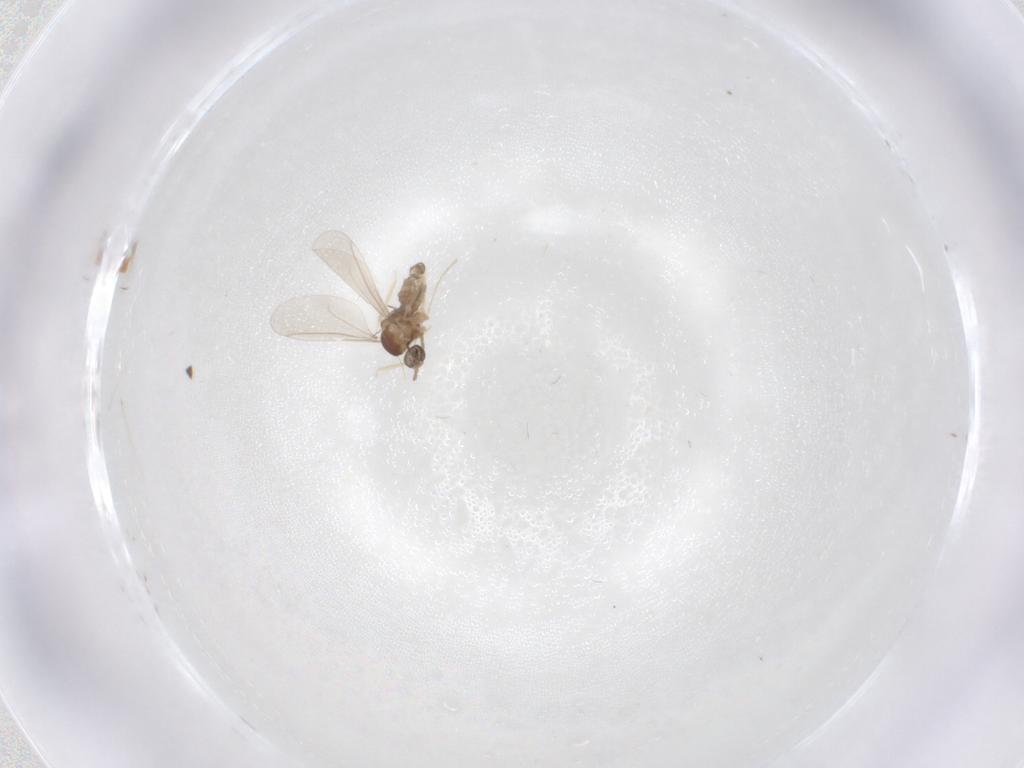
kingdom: Animalia
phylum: Arthropoda
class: Insecta
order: Diptera
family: Cecidomyiidae
